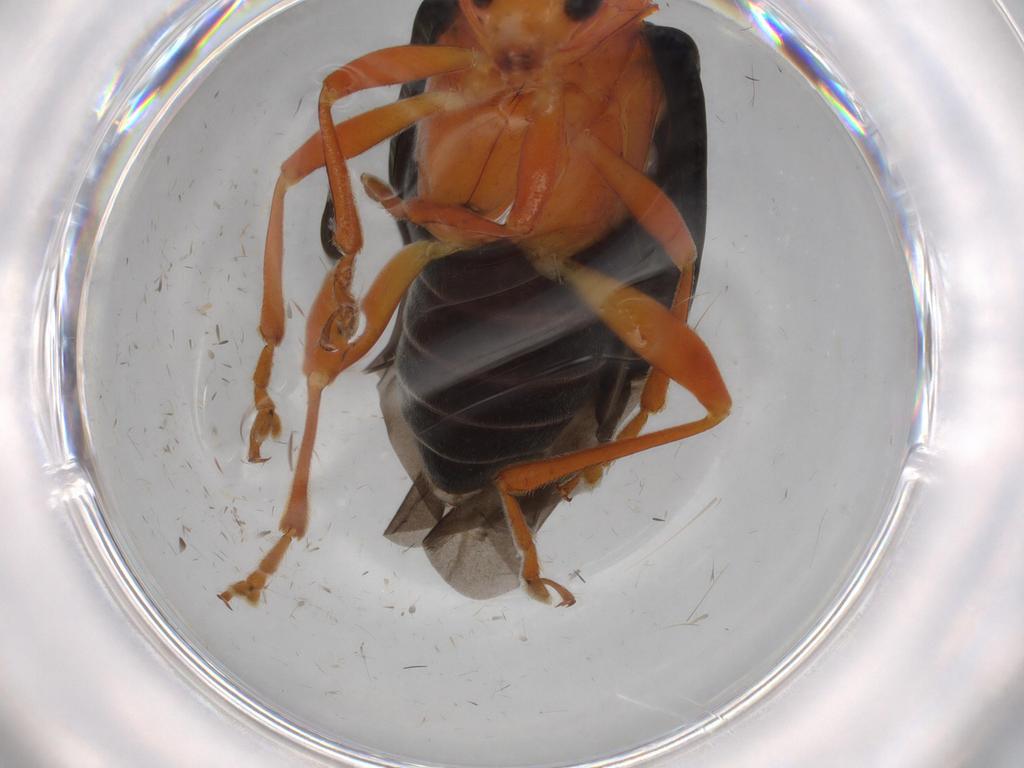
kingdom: Animalia
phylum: Arthropoda
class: Insecta
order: Coleoptera
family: Chrysomelidae
